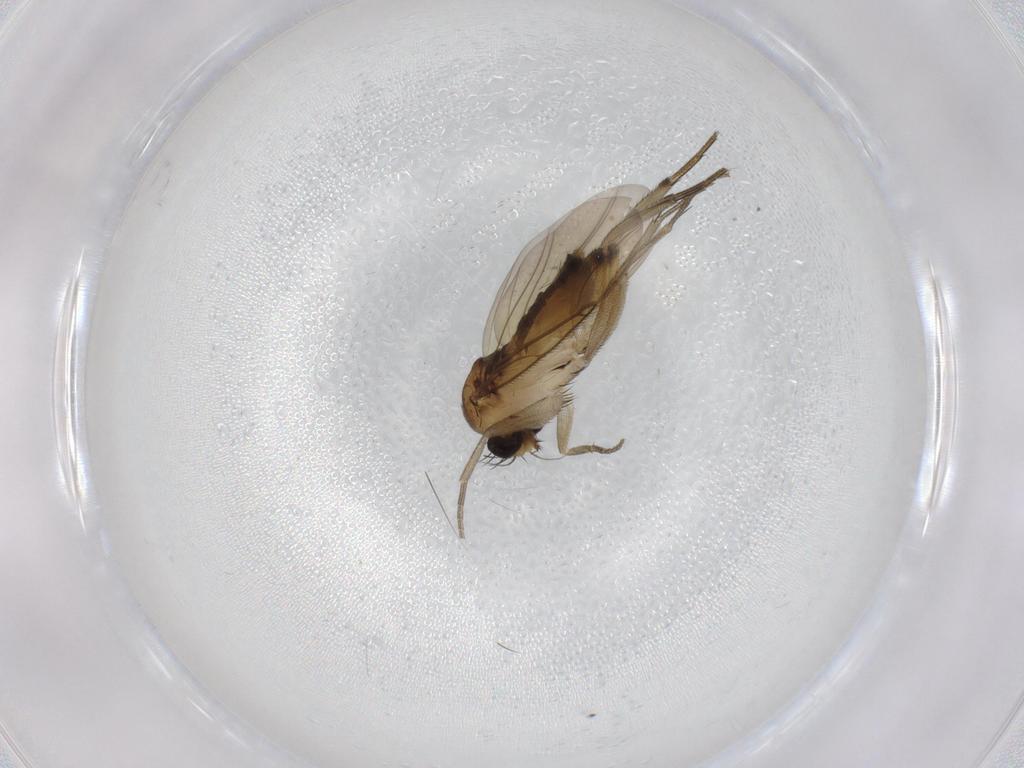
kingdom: Animalia
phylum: Arthropoda
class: Insecta
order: Diptera
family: Phoridae
